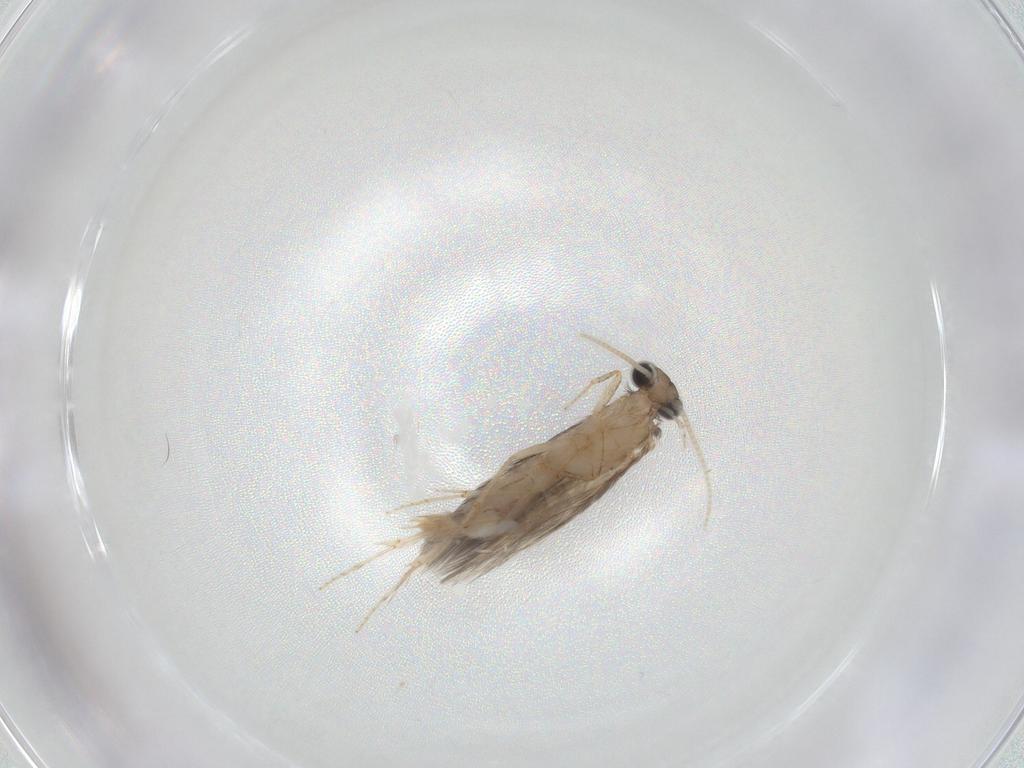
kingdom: Animalia
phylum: Arthropoda
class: Insecta
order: Trichoptera
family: Hydroptilidae
